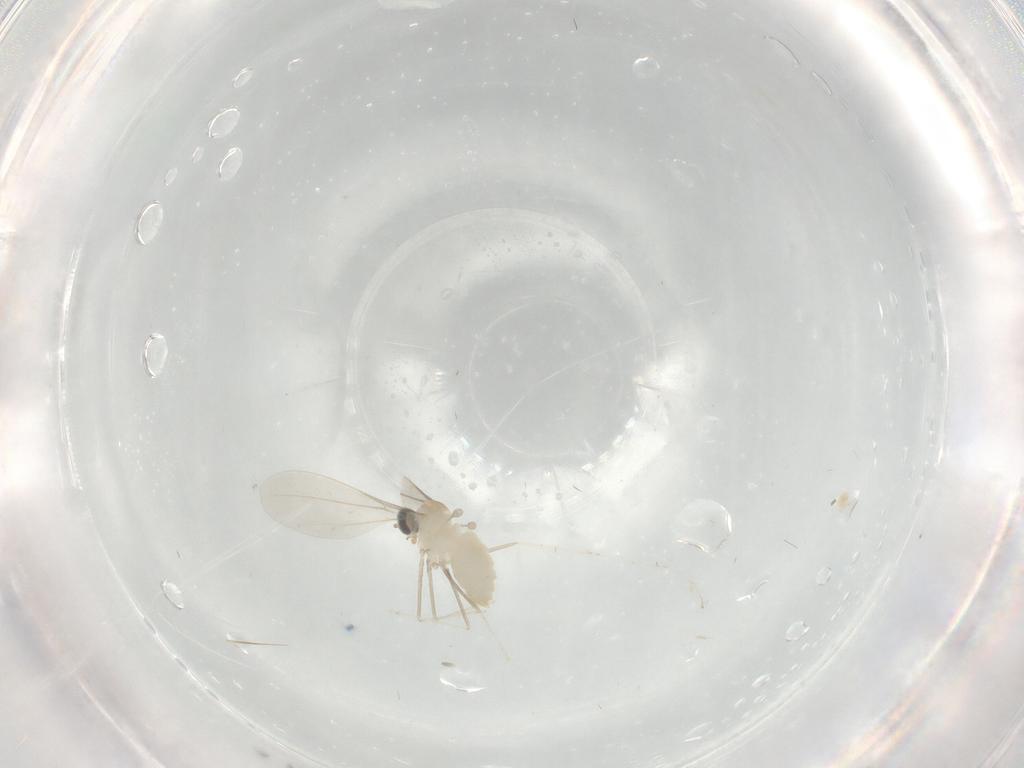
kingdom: Animalia
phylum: Arthropoda
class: Insecta
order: Diptera
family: Cecidomyiidae
